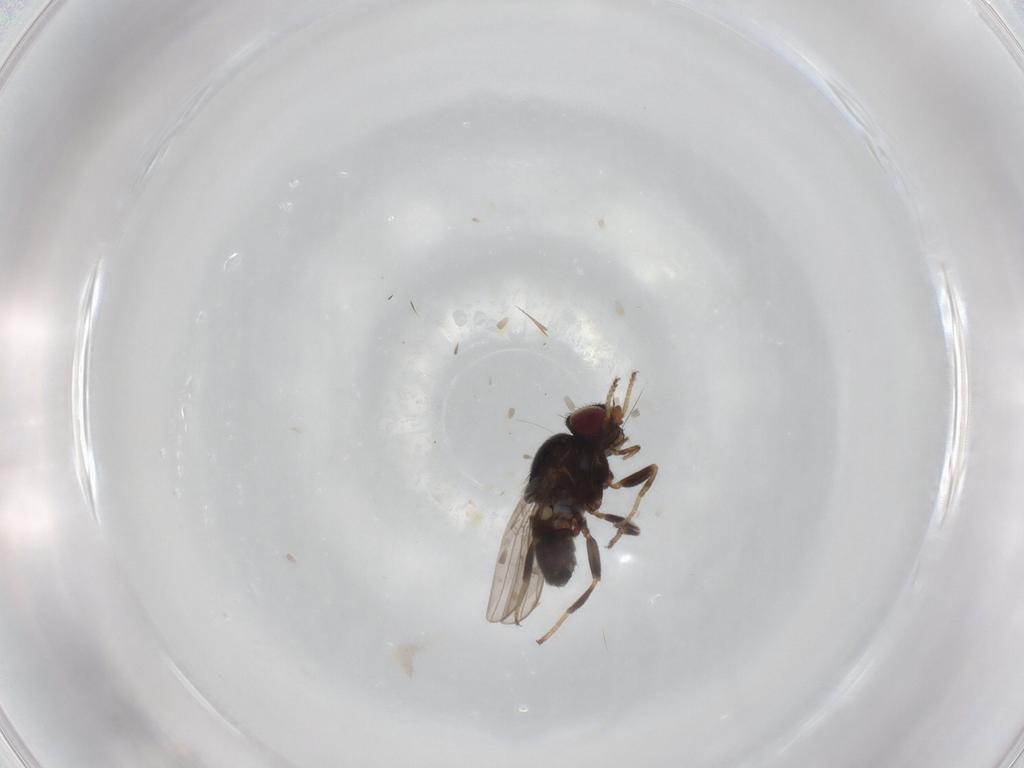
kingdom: Animalia
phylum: Arthropoda
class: Insecta
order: Diptera
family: Chloropidae
